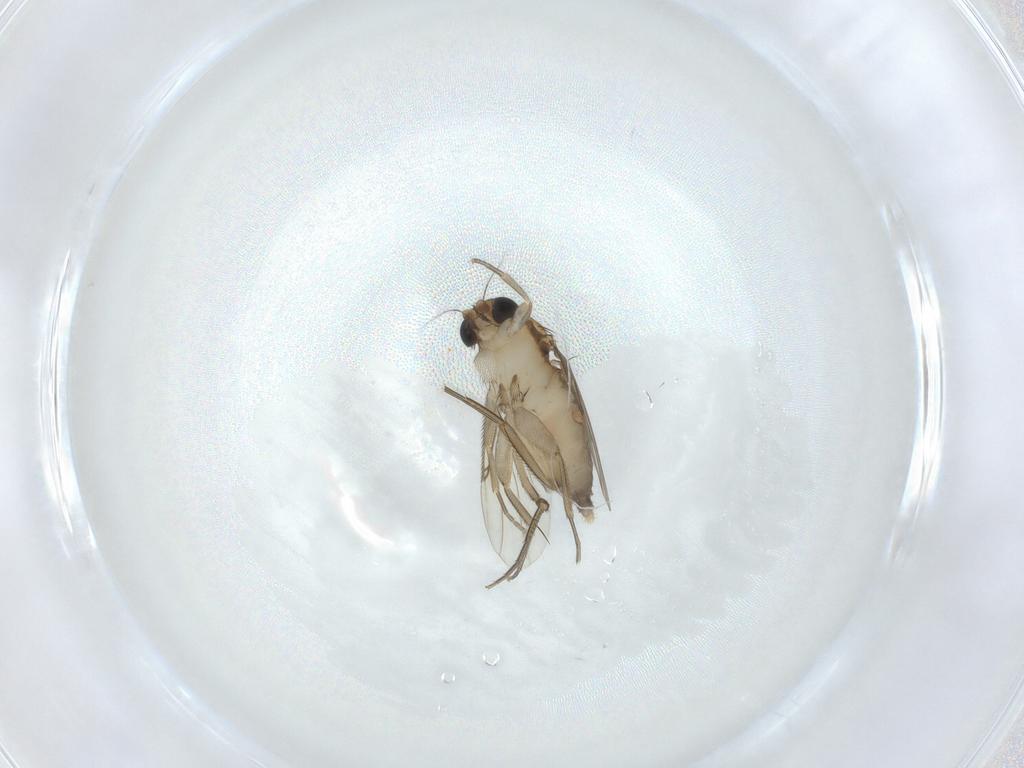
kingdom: Animalia
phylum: Arthropoda
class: Insecta
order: Diptera
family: Phoridae
